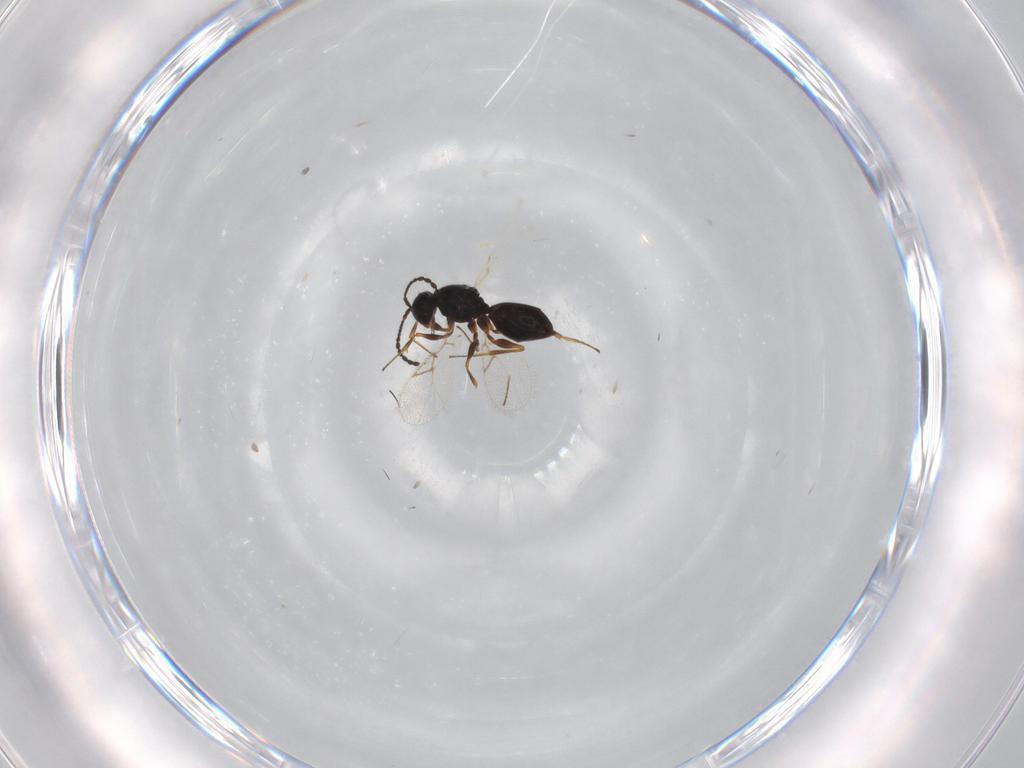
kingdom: Animalia
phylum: Arthropoda
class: Insecta
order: Hymenoptera
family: Figitidae
